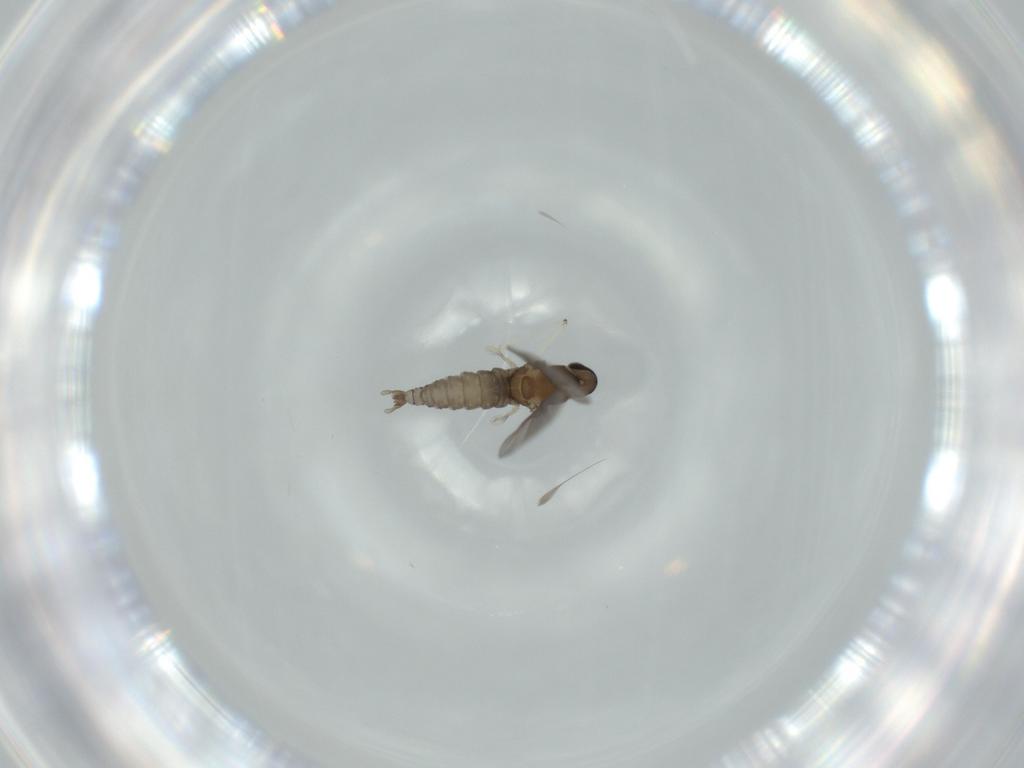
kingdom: Animalia
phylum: Arthropoda
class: Insecta
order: Diptera
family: Cecidomyiidae
